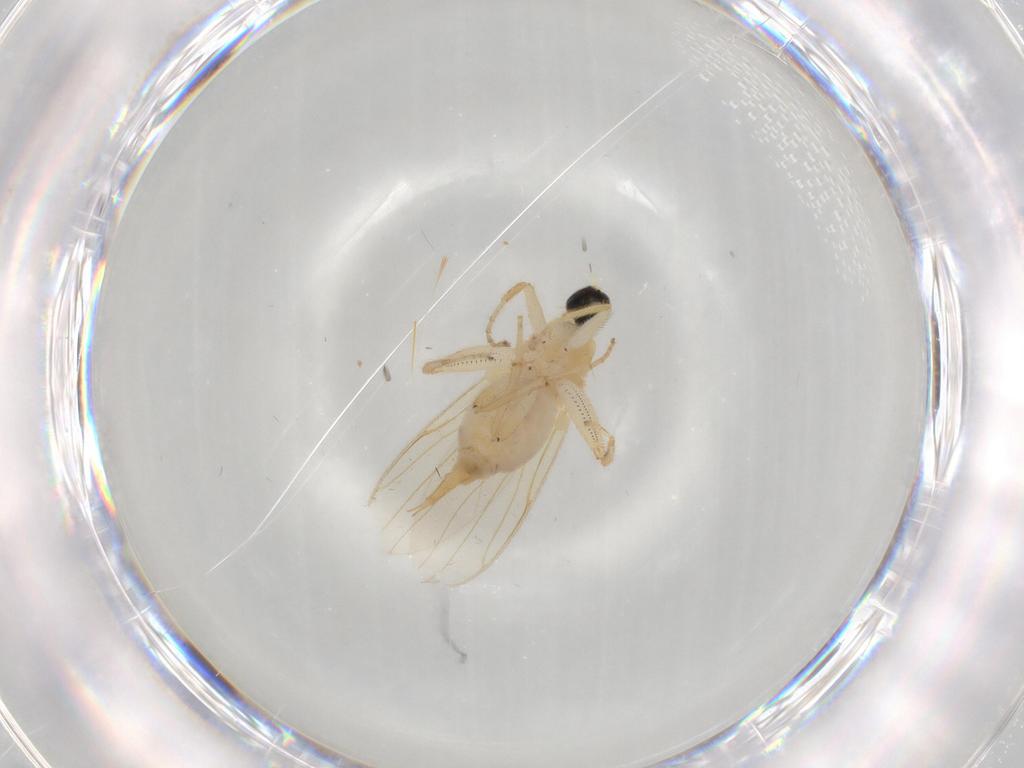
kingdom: Animalia
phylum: Arthropoda
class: Insecta
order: Diptera
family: Hybotidae
